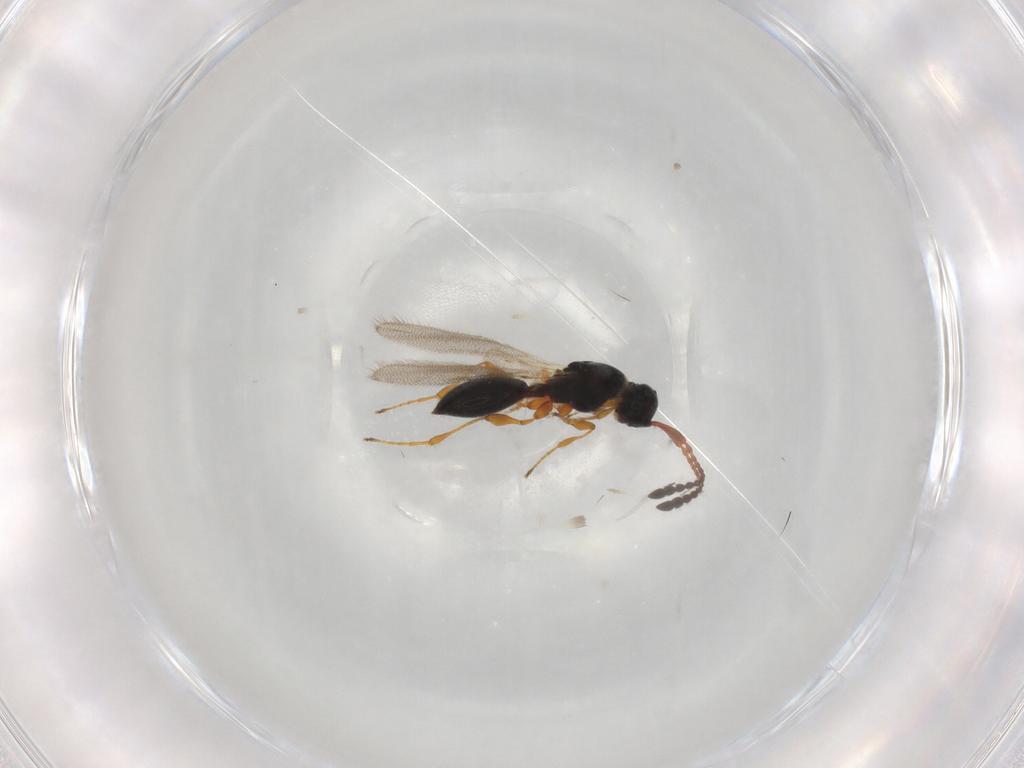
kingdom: Animalia
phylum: Arthropoda
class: Insecta
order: Hymenoptera
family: Diapriidae
